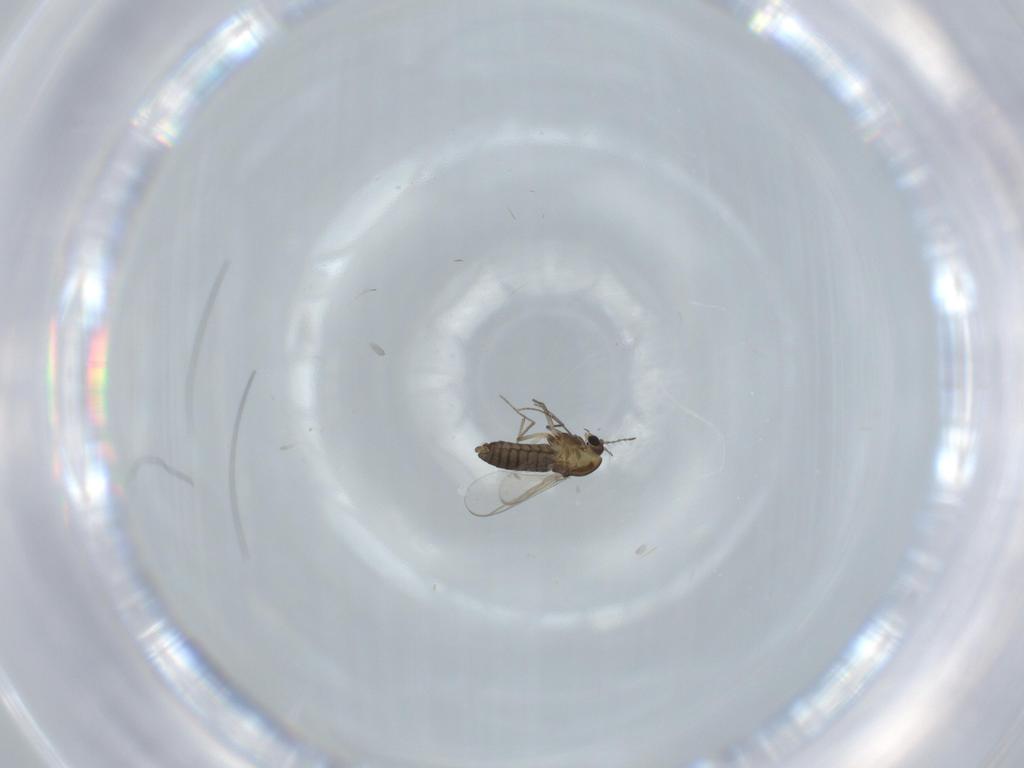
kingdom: Animalia
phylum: Arthropoda
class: Insecta
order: Diptera
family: Chironomidae
